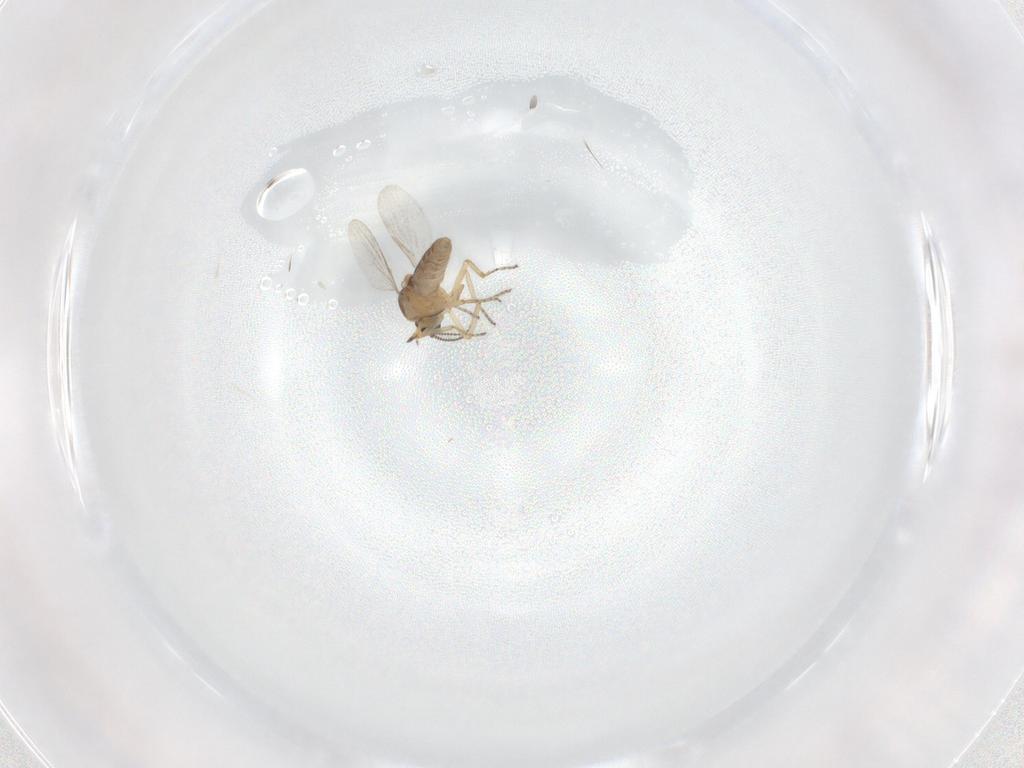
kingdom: Animalia
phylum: Arthropoda
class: Insecta
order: Diptera
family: Ceratopogonidae
